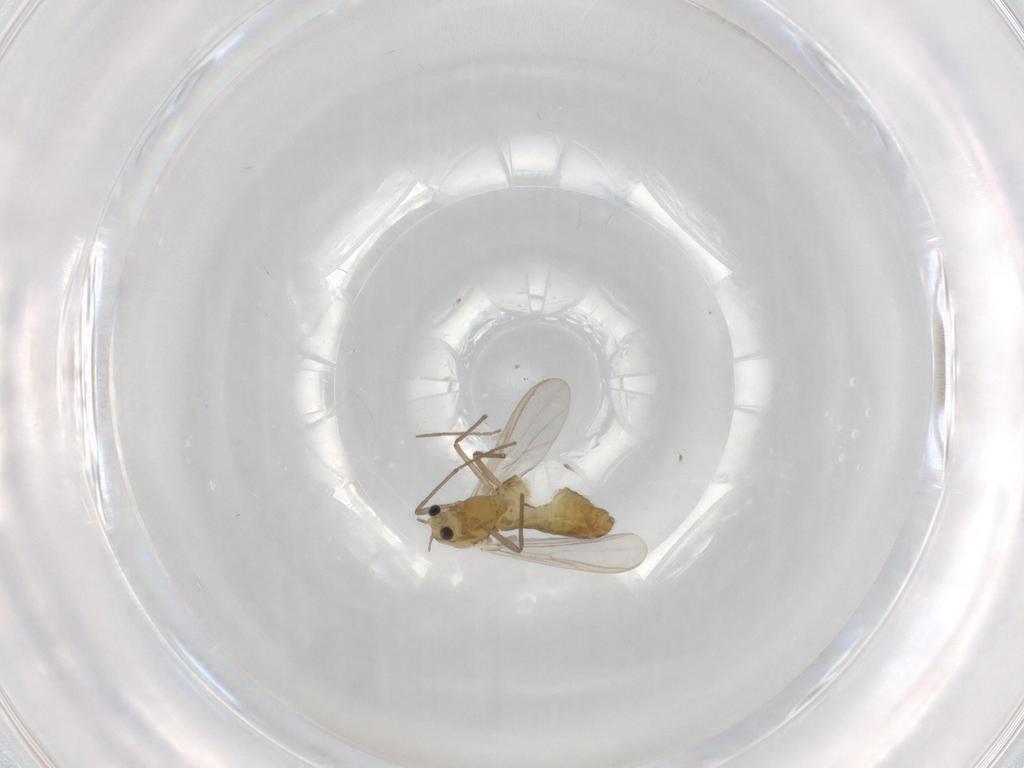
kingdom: Animalia
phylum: Arthropoda
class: Insecta
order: Diptera
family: Chironomidae
